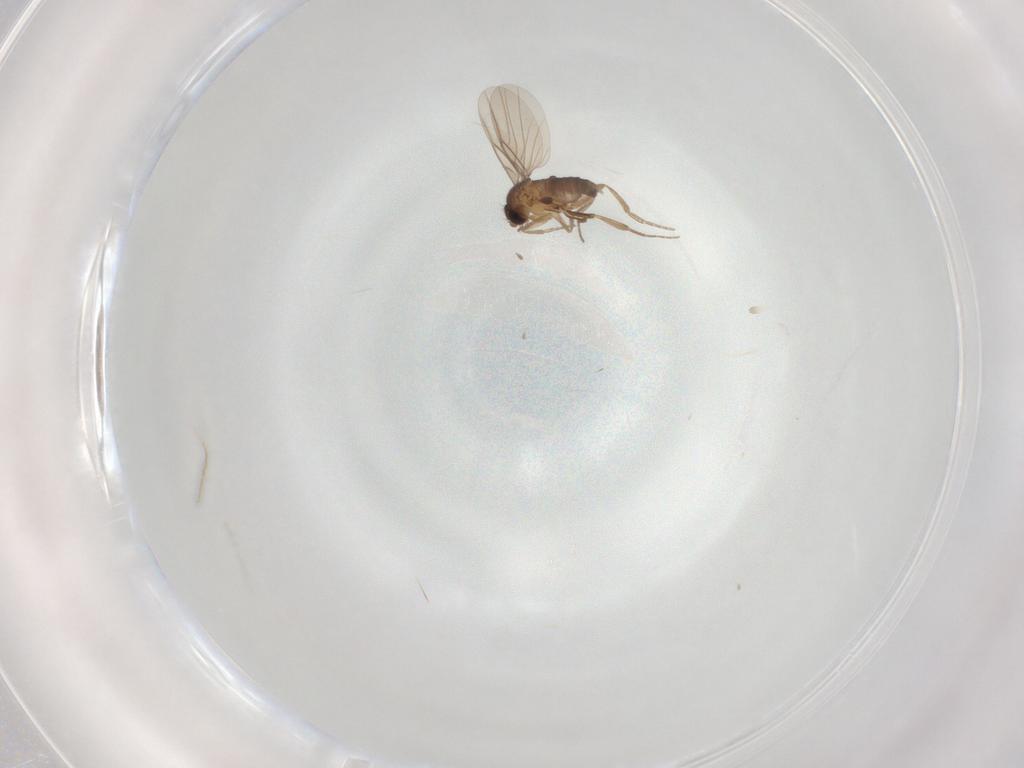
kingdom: Animalia
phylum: Arthropoda
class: Insecta
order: Diptera
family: Phoridae
